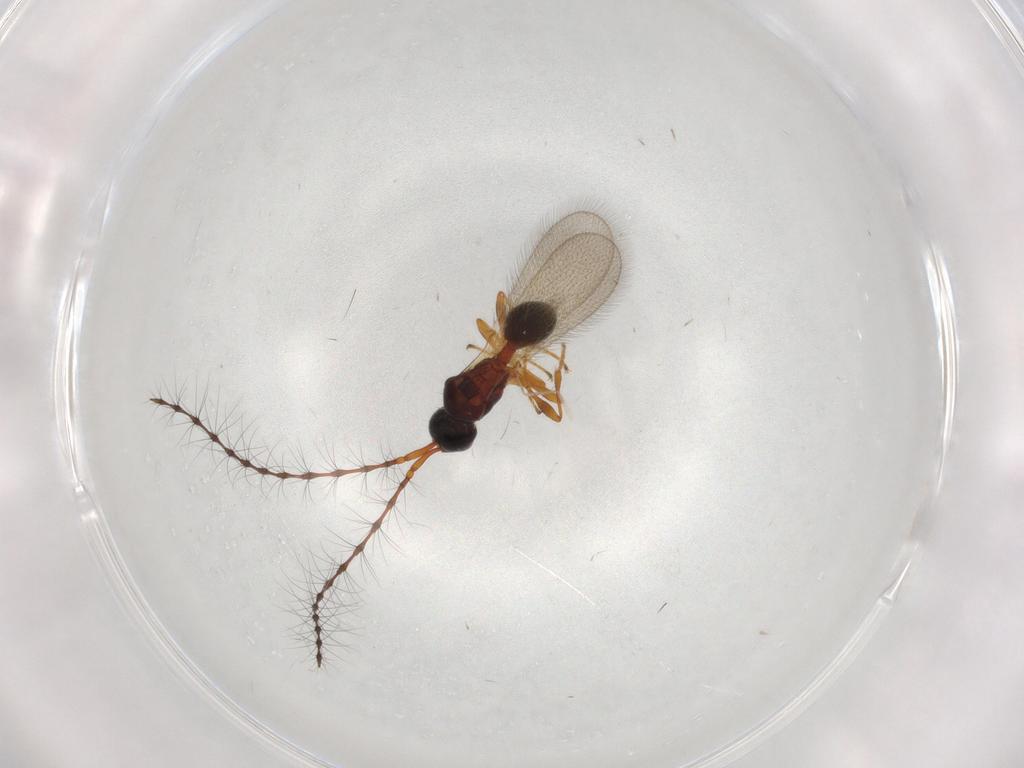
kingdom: Animalia
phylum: Arthropoda
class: Insecta
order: Hymenoptera
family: Diapriidae
